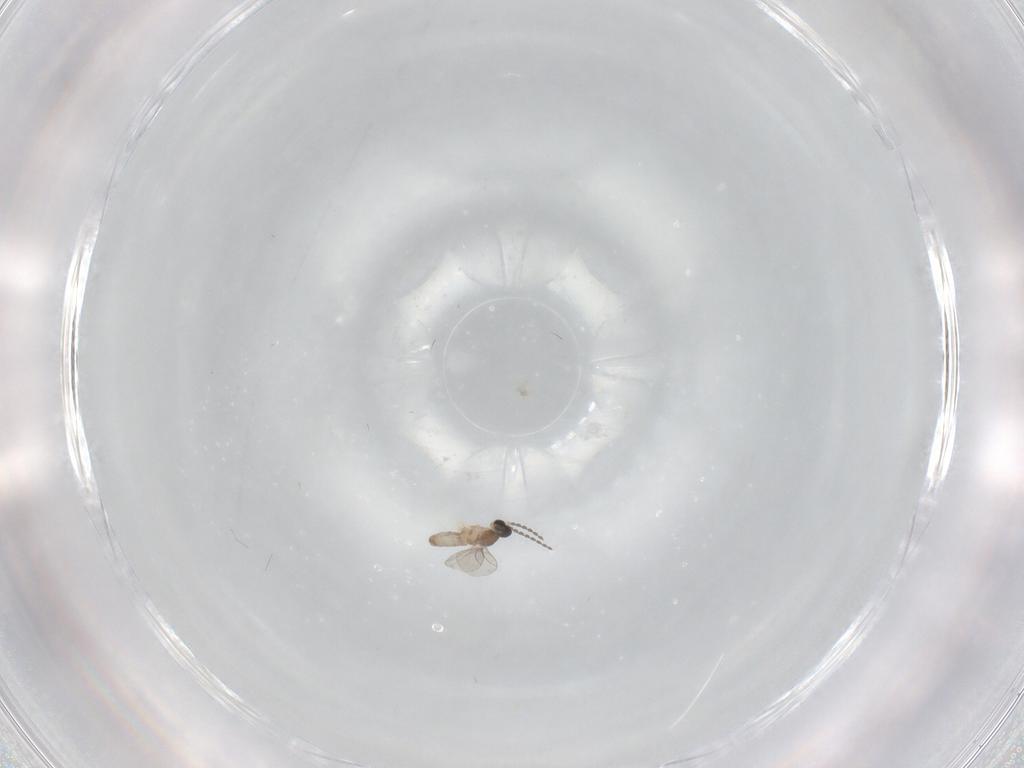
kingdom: Animalia
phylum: Arthropoda
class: Insecta
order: Diptera
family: Cecidomyiidae
